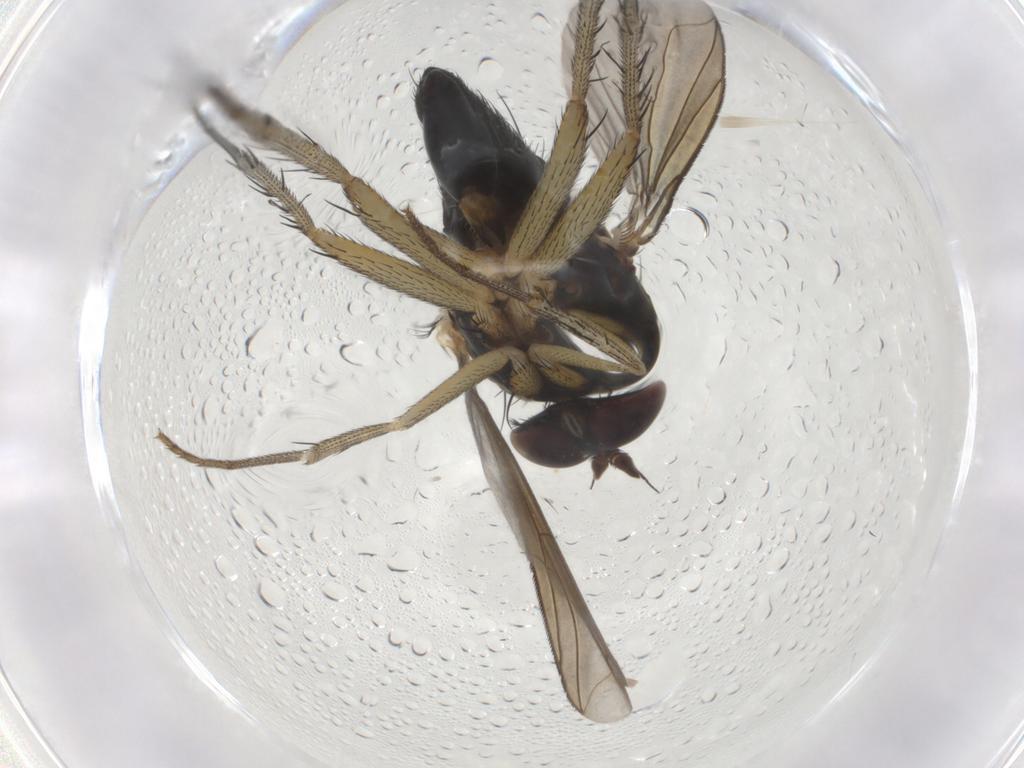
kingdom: Animalia
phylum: Arthropoda
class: Insecta
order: Diptera
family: Dolichopodidae
